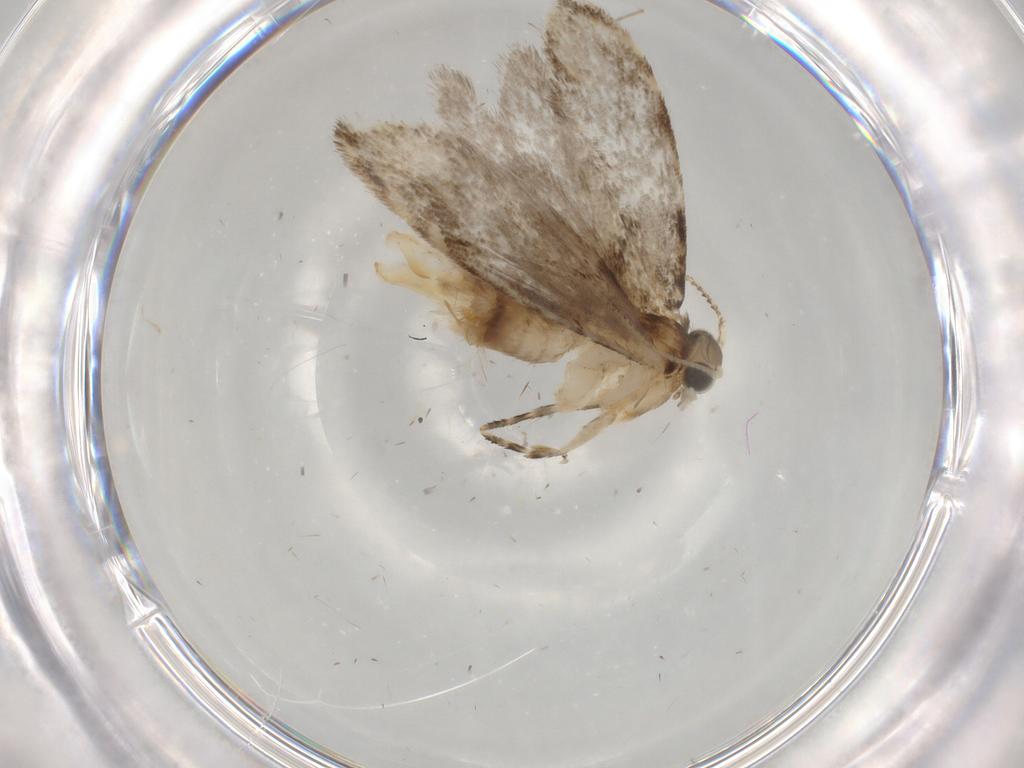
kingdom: Animalia
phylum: Arthropoda
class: Insecta
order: Lepidoptera
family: Tineidae
